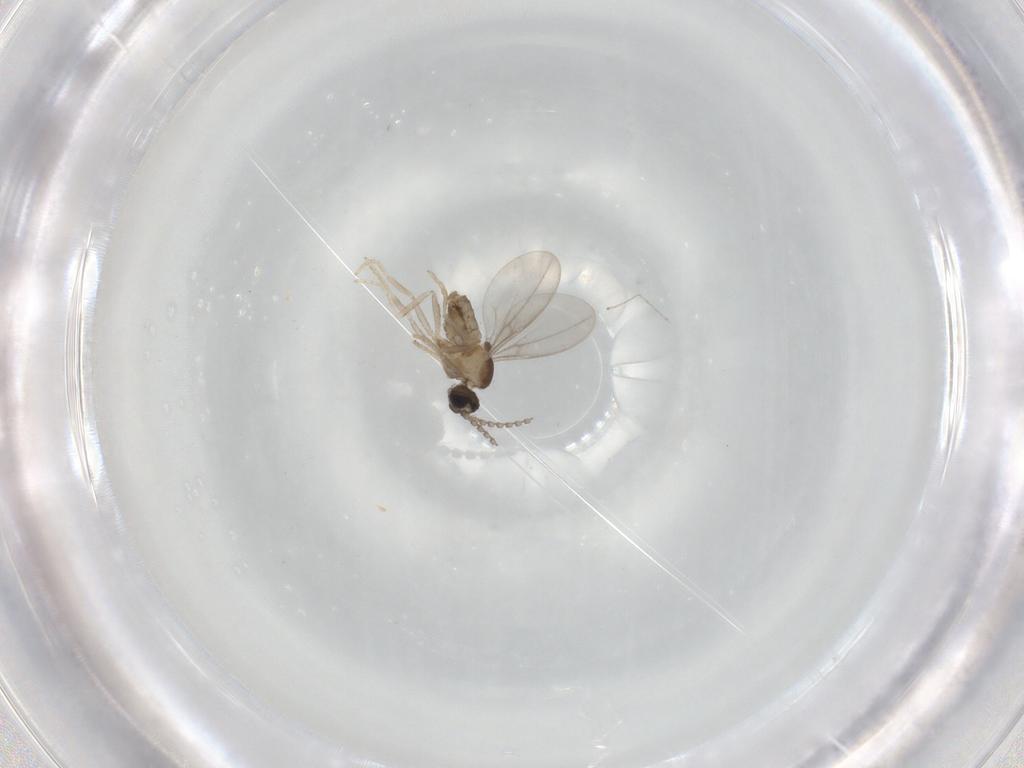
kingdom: Animalia
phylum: Arthropoda
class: Insecta
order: Diptera
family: Cecidomyiidae
